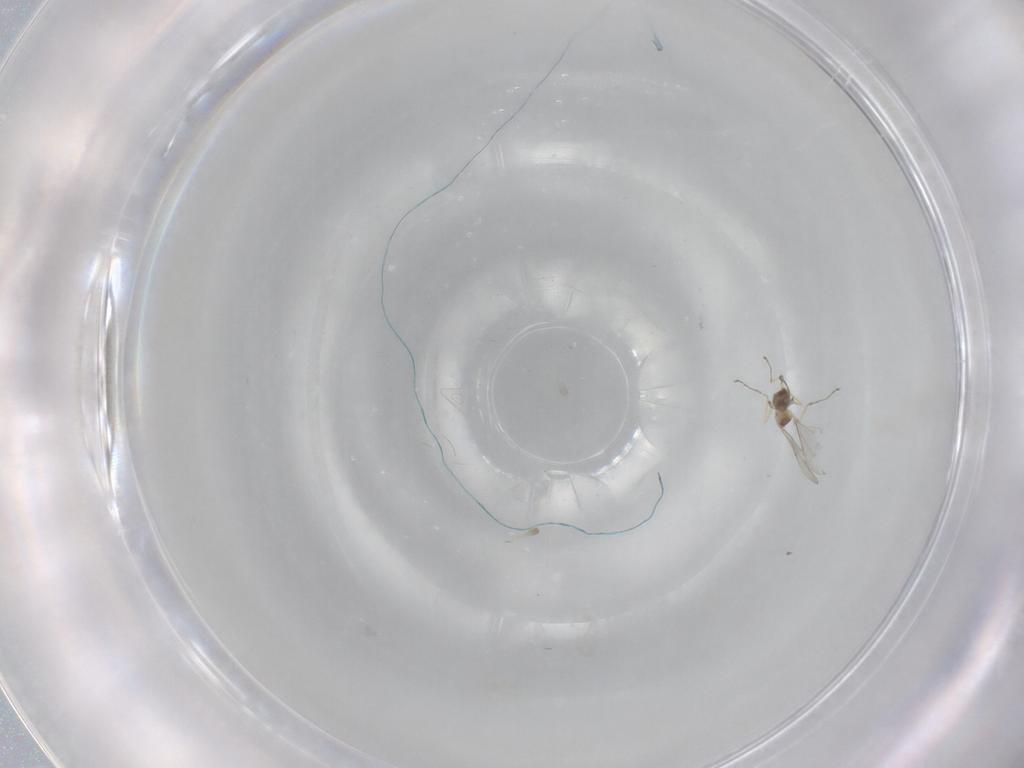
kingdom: Animalia
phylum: Arthropoda
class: Insecta
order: Diptera
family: Cecidomyiidae
